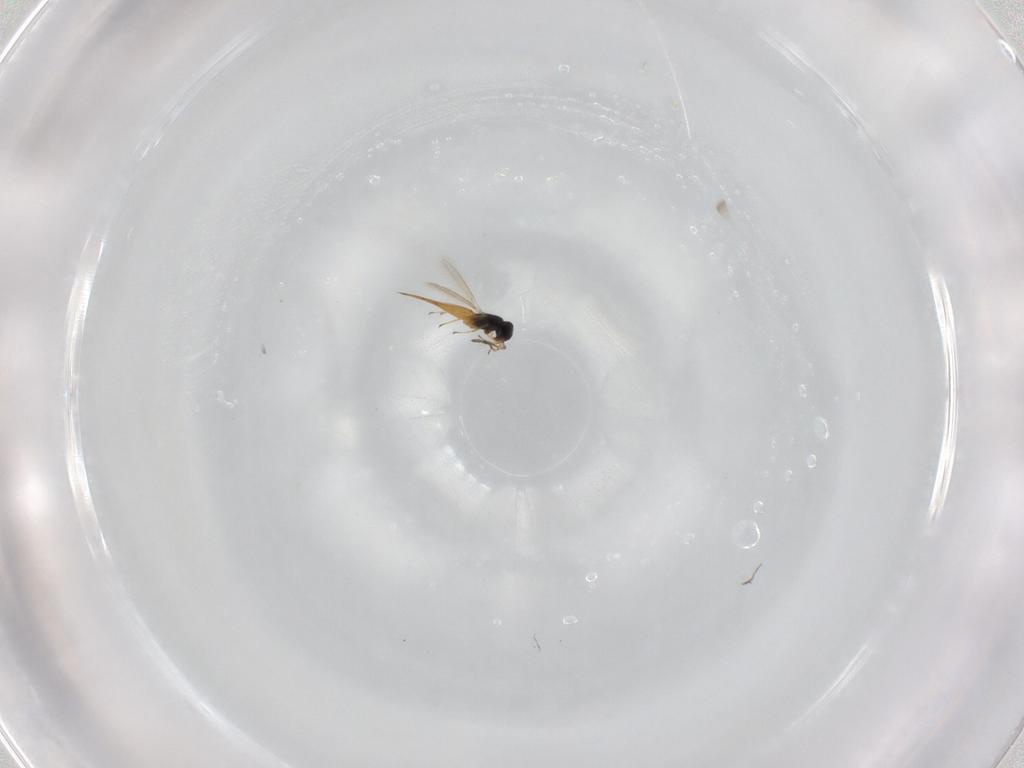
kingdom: Animalia
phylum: Arthropoda
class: Insecta
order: Hymenoptera
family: Scelionidae
